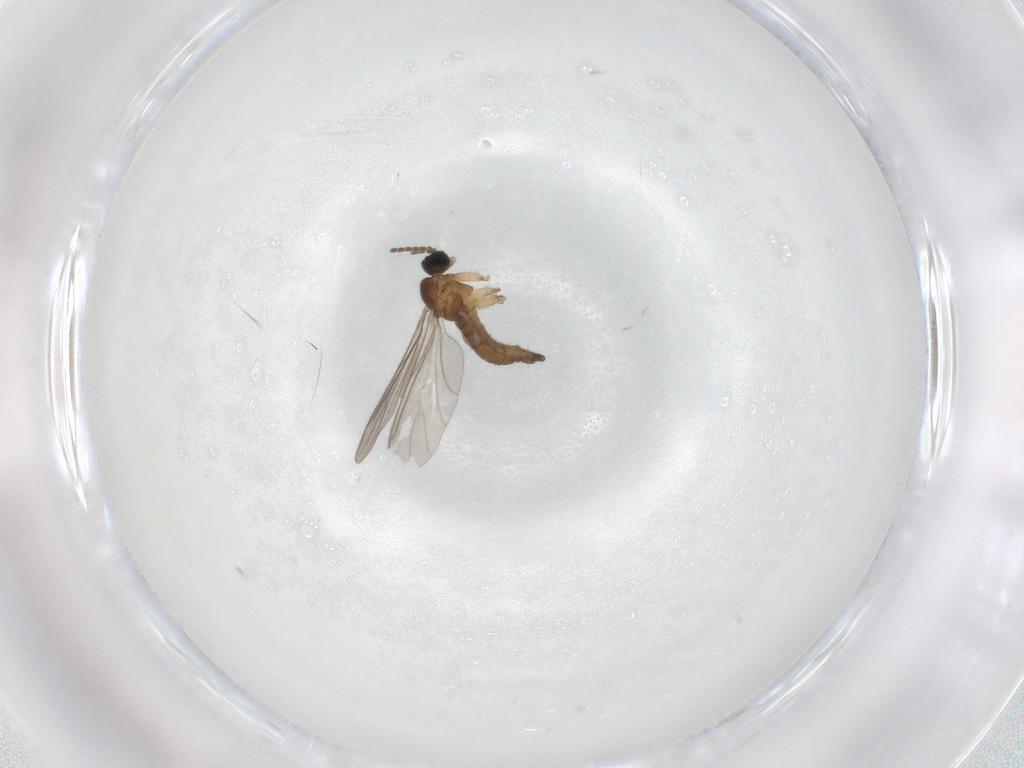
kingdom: Animalia
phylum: Arthropoda
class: Insecta
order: Diptera
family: Sciaridae
